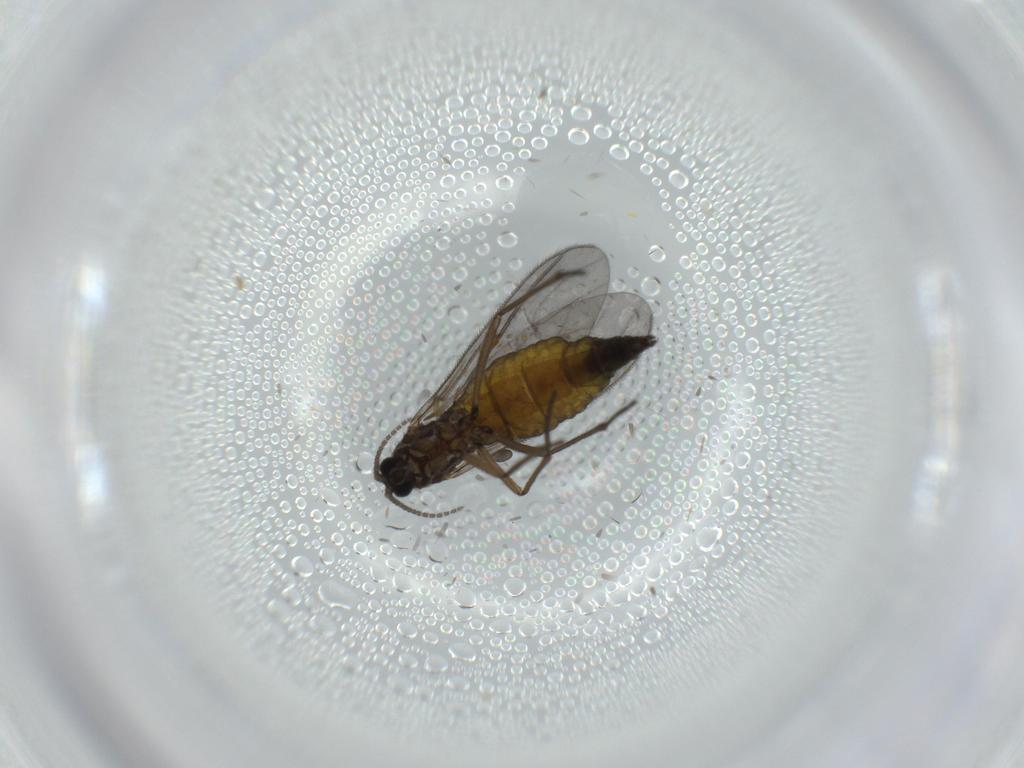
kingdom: Animalia
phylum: Arthropoda
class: Insecta
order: Diptera
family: Sciaridae
